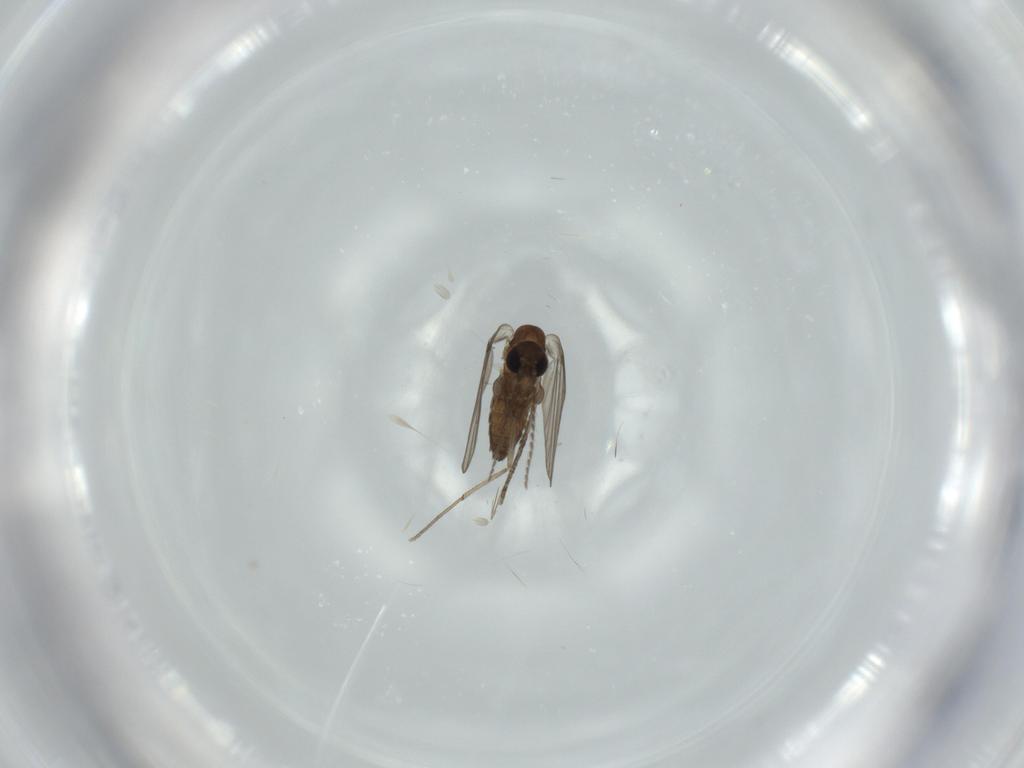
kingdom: Animalia
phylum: Arthropoda
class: Insecta
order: Diptera
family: Psychodidae
